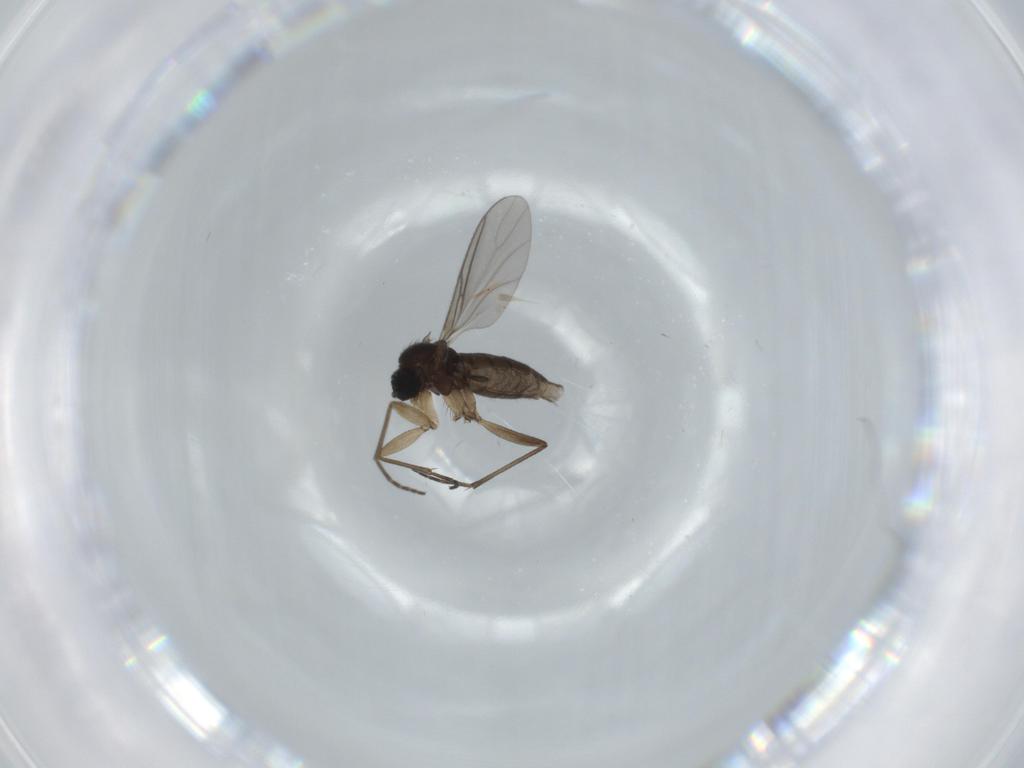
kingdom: Animalia
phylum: Arthropoda
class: Insecta
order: Diptera
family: Sciaridae
